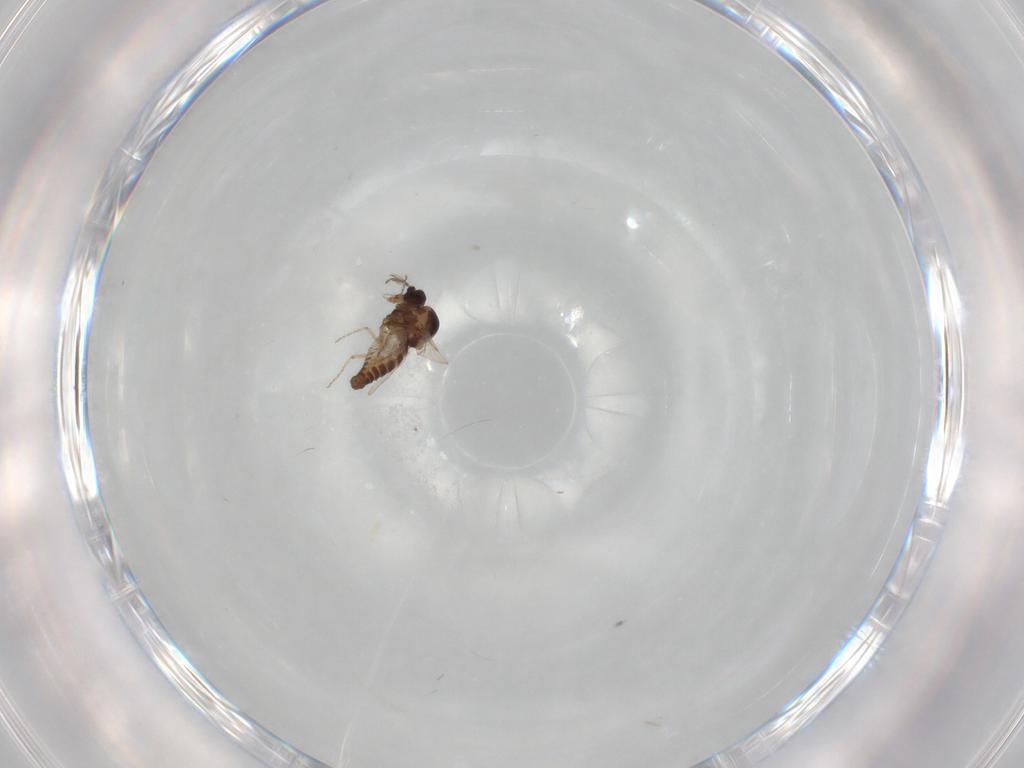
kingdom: Animalia
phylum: Arthropoda
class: Insecta
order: Diptera
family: Ceratopogonidae
